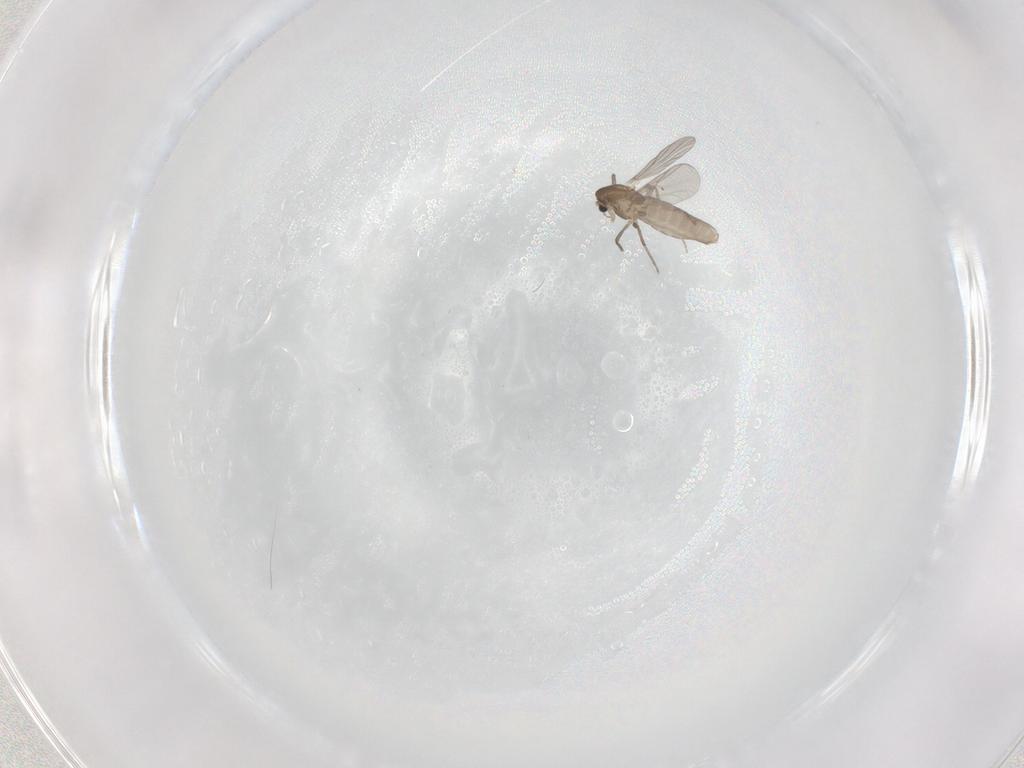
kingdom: Animalia
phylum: Arthropoda
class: Insecta
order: Diptera
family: Chironomidae
